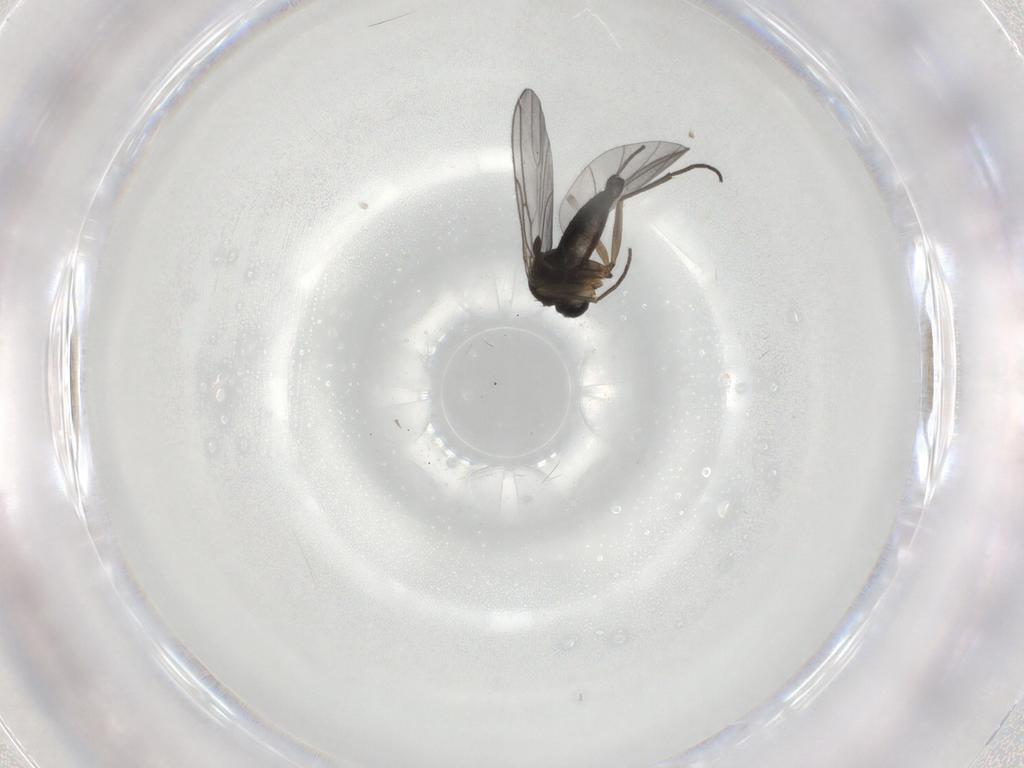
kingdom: Animalia
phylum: Arthropoda
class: Insecta
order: Diptera
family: Sciaridae
